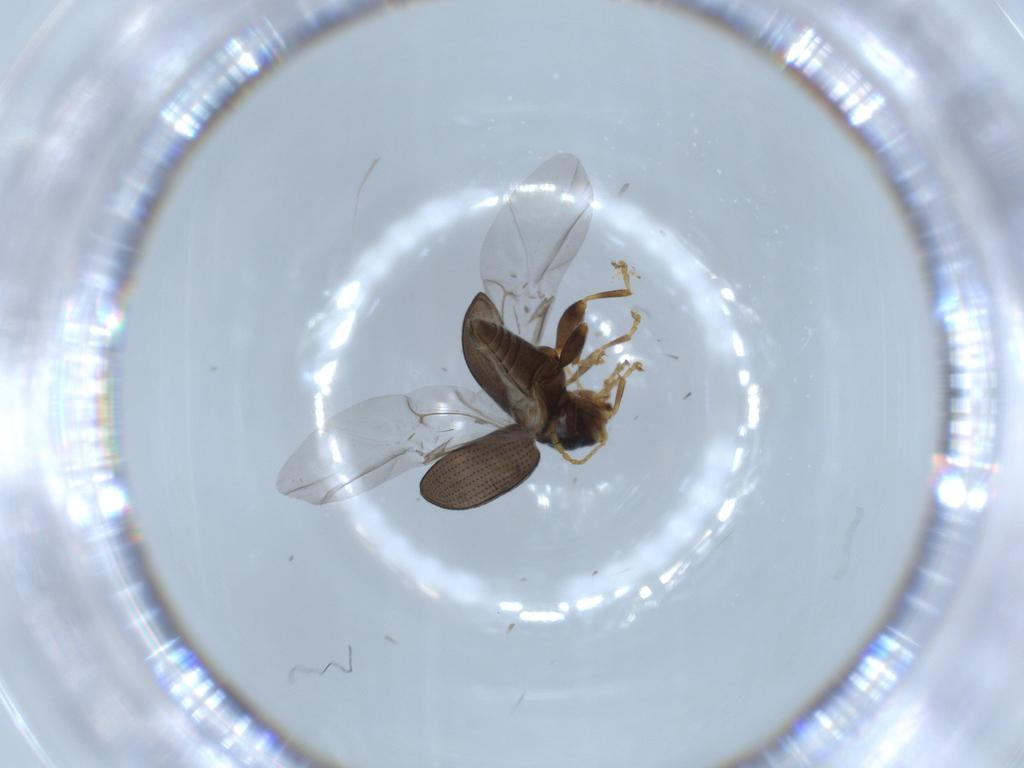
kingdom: Animalia
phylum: Arthropoda
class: Insecta
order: Coleoptera
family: Chrysomelidae
